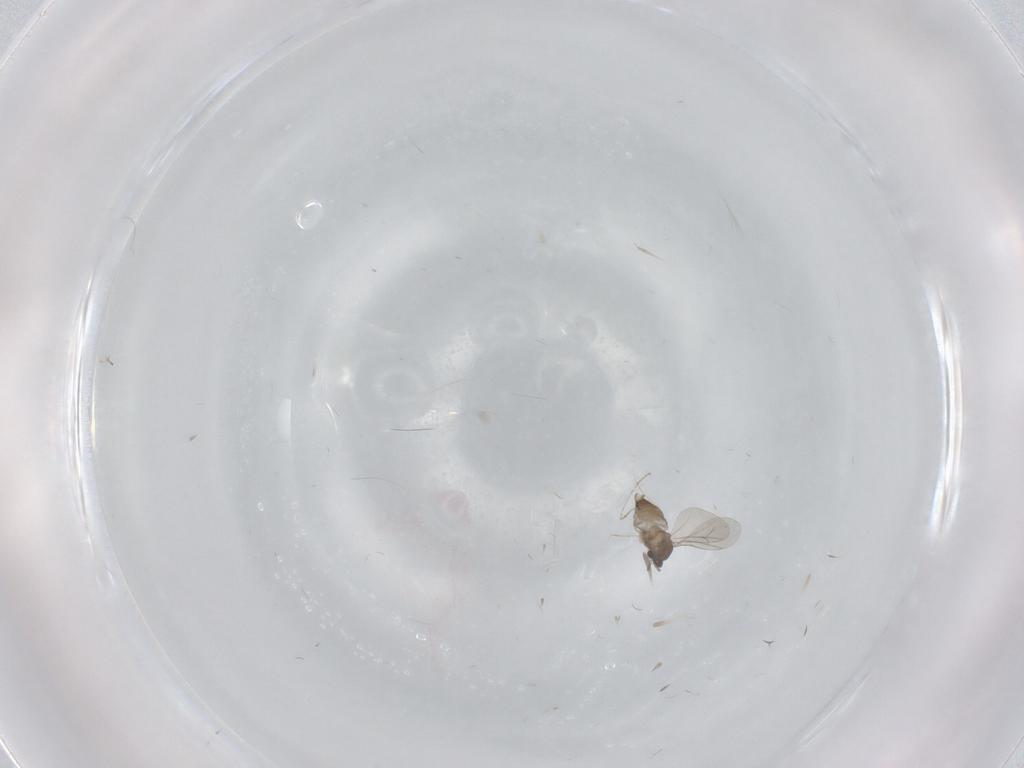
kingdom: Animalia
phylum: Arthropoda
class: Insecta
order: Diptera
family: Cecidomyiidae
